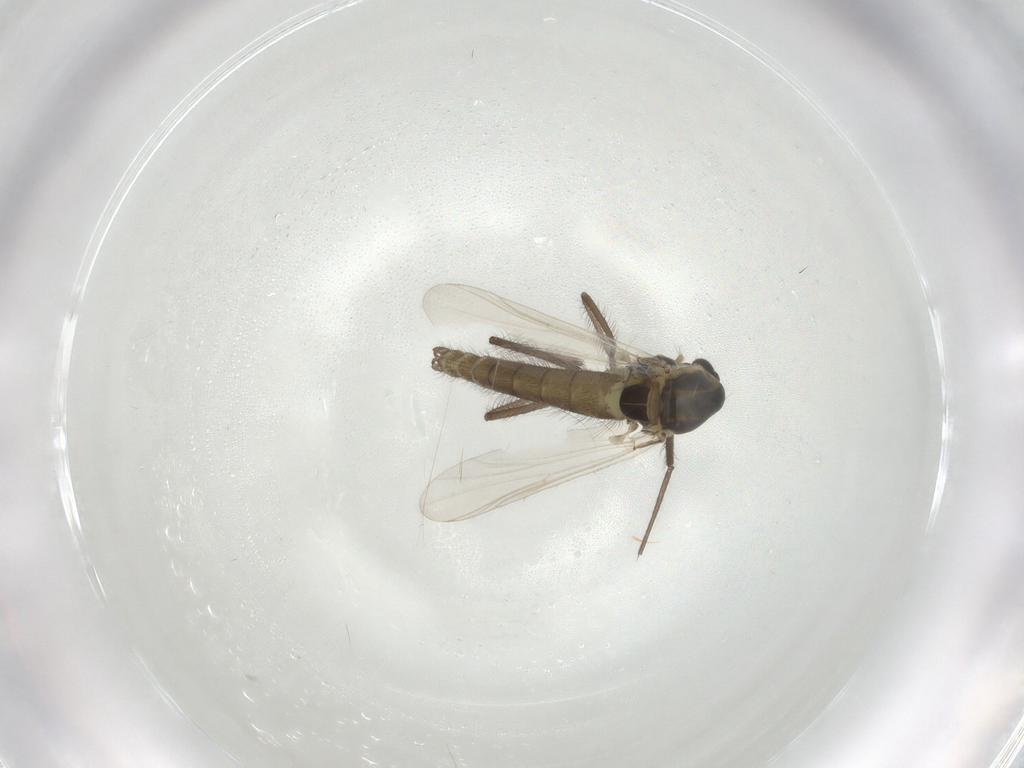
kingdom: Animalia
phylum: Arthropoda
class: Insecta
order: Diptera
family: Chironomidae
